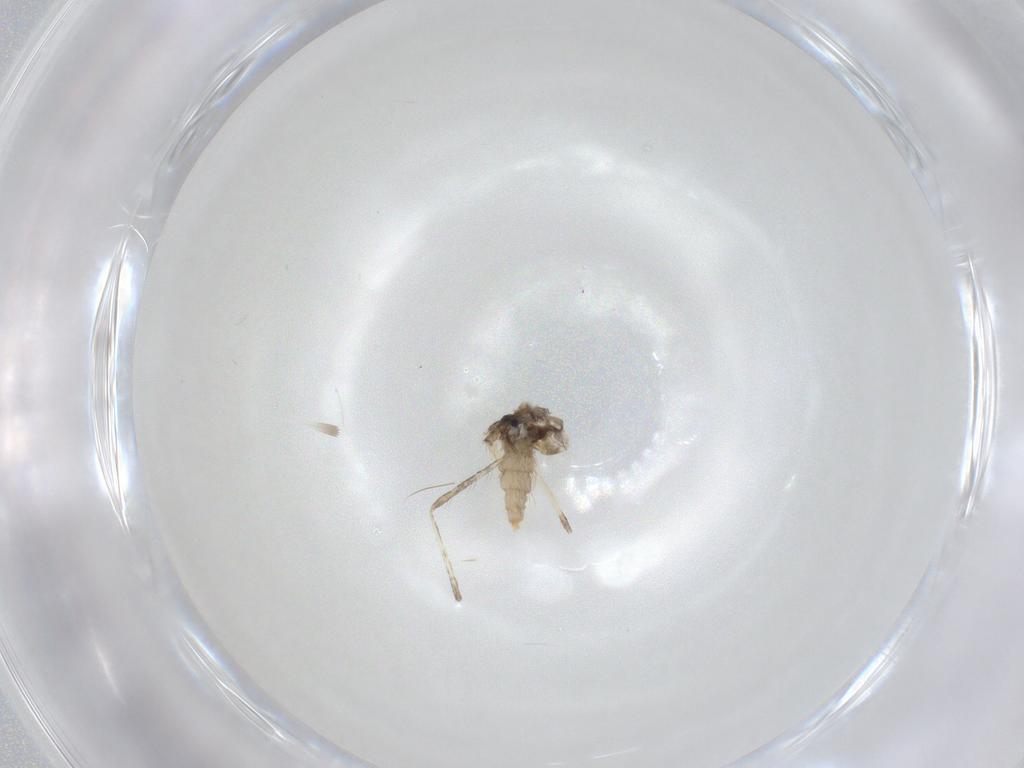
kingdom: Animalia
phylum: Arthropoda
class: Insecta
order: Diptera
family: Cecidomyiidae
